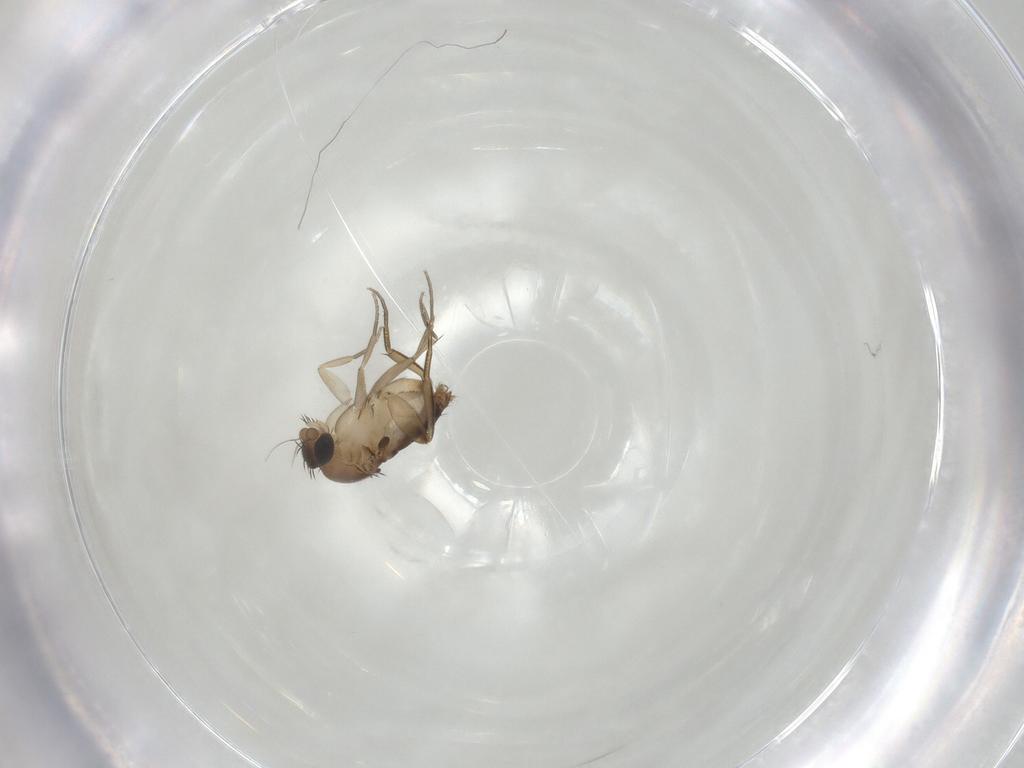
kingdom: Animalia
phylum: Arthropoda
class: Insecta
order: Diptera
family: Phoridae
